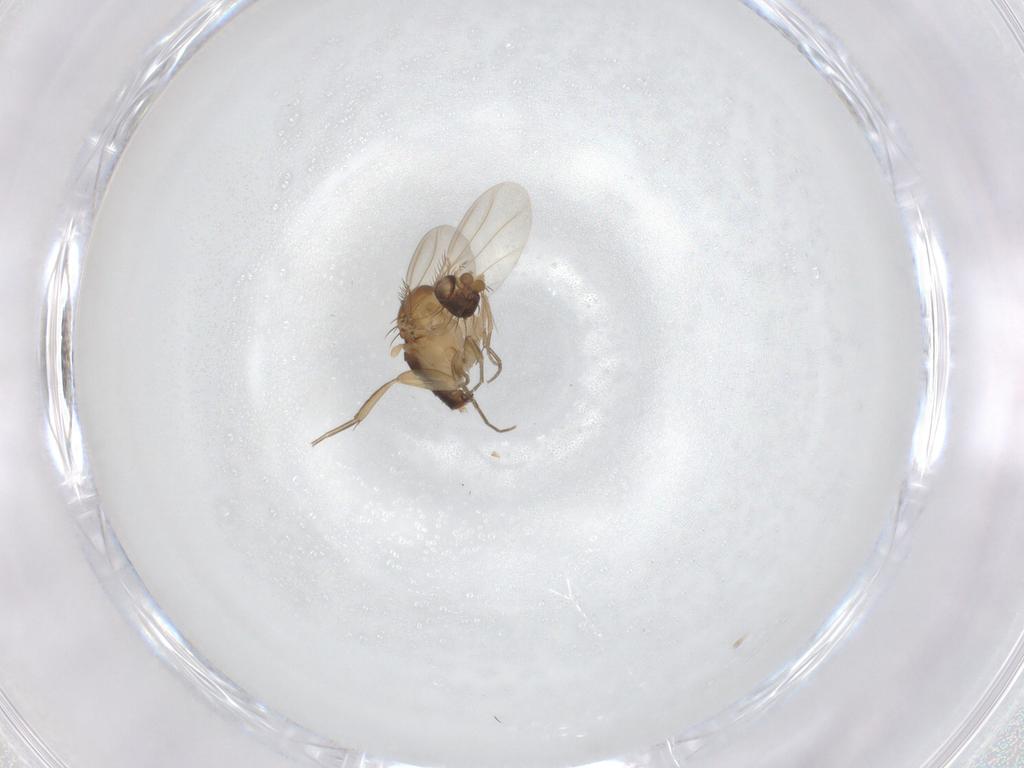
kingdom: Animalia
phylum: Arthropoda
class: Insecta
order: Diptera
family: Phoridae
